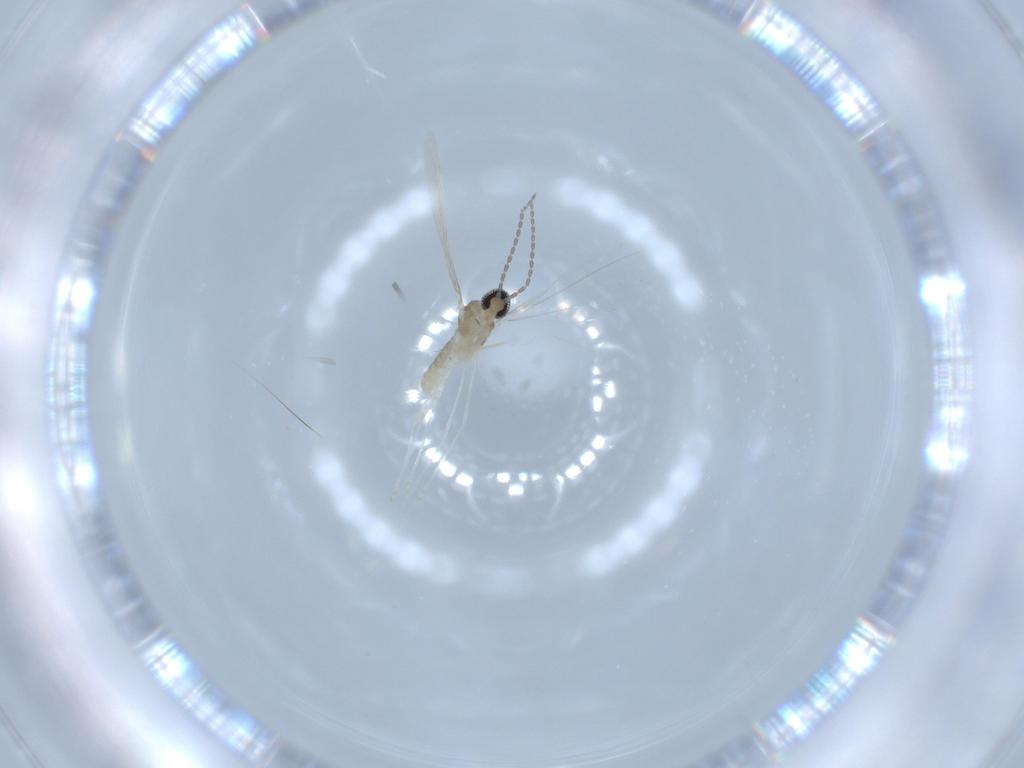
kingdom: Animalia
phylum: Arthropoda
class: Insecta
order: Diptera
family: Cecidomyiidae
